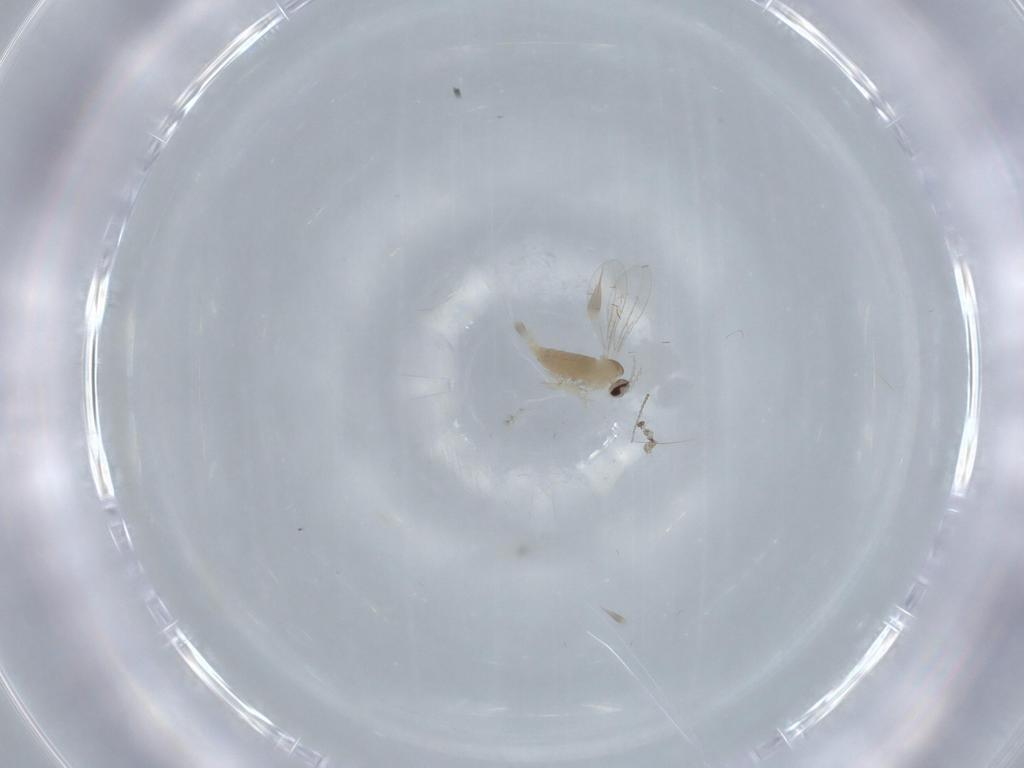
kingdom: Animalia
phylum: Arthropoda
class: Insecta
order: Diptera
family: Cecidomyiidae
